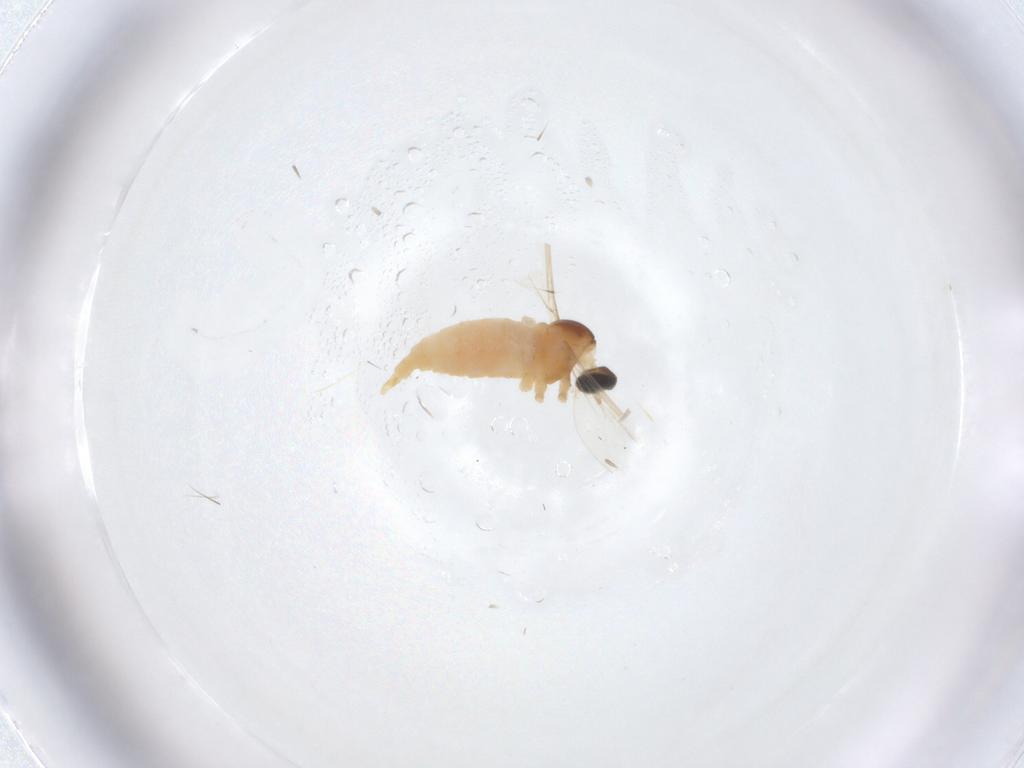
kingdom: Animalia
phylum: Arthropoda
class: Insecta
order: Diptera
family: Cecidomyiidae
